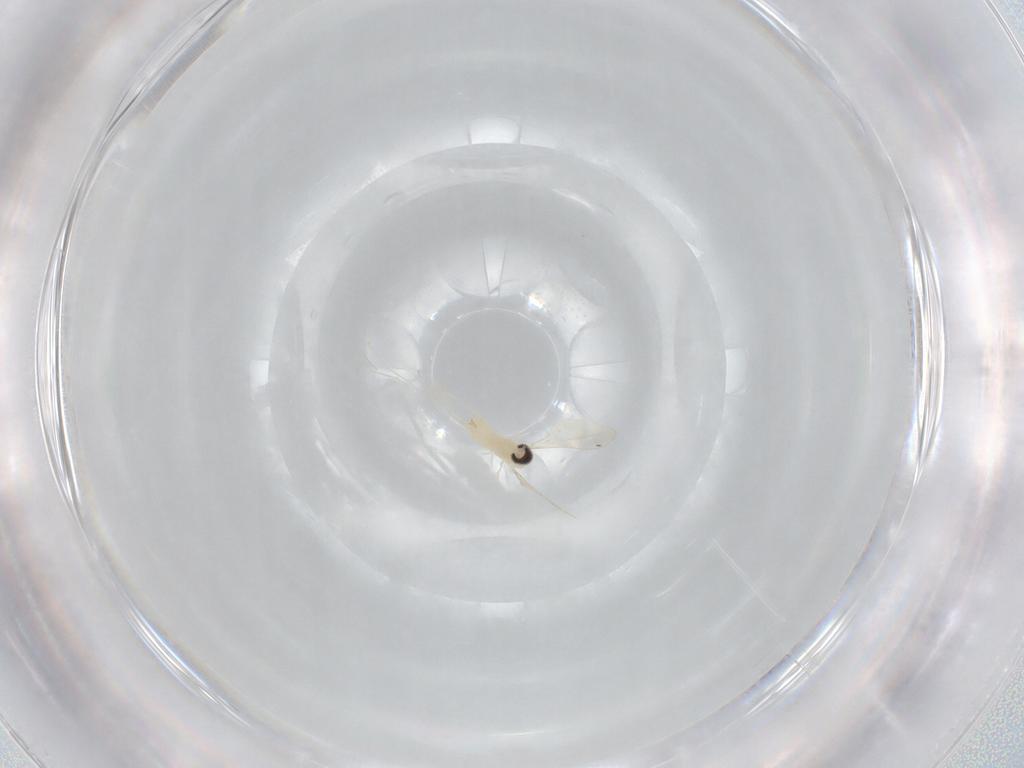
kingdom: Animalia
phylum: Arthropoda
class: Insecta
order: Diptera
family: Cecidomyiidae
